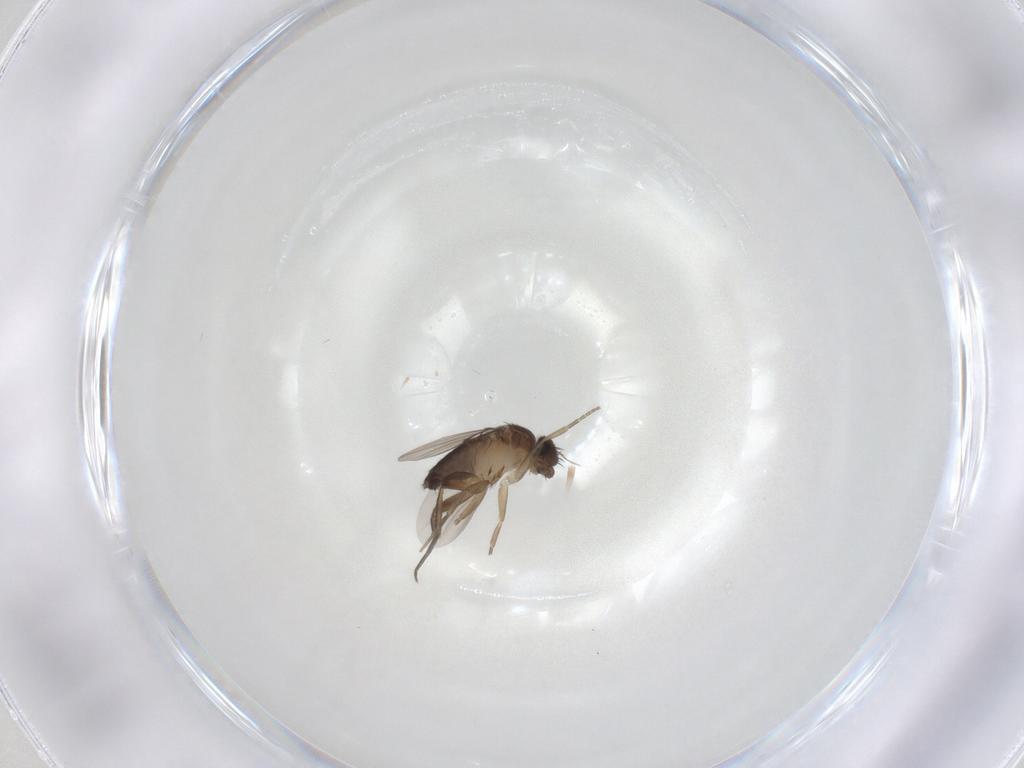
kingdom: Animalia
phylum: Arthropoda
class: Insecta
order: Diptera
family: Phoridae
